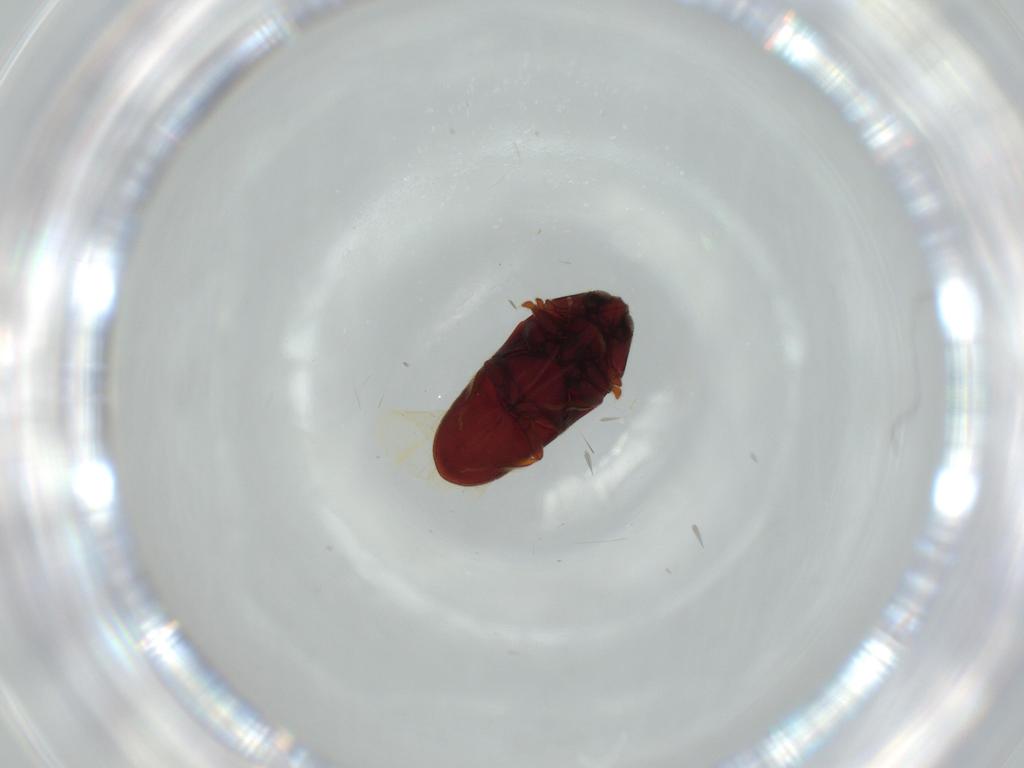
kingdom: Animalia
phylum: Arthropoda
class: Insecta
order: Coleoptera
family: Throscidae
